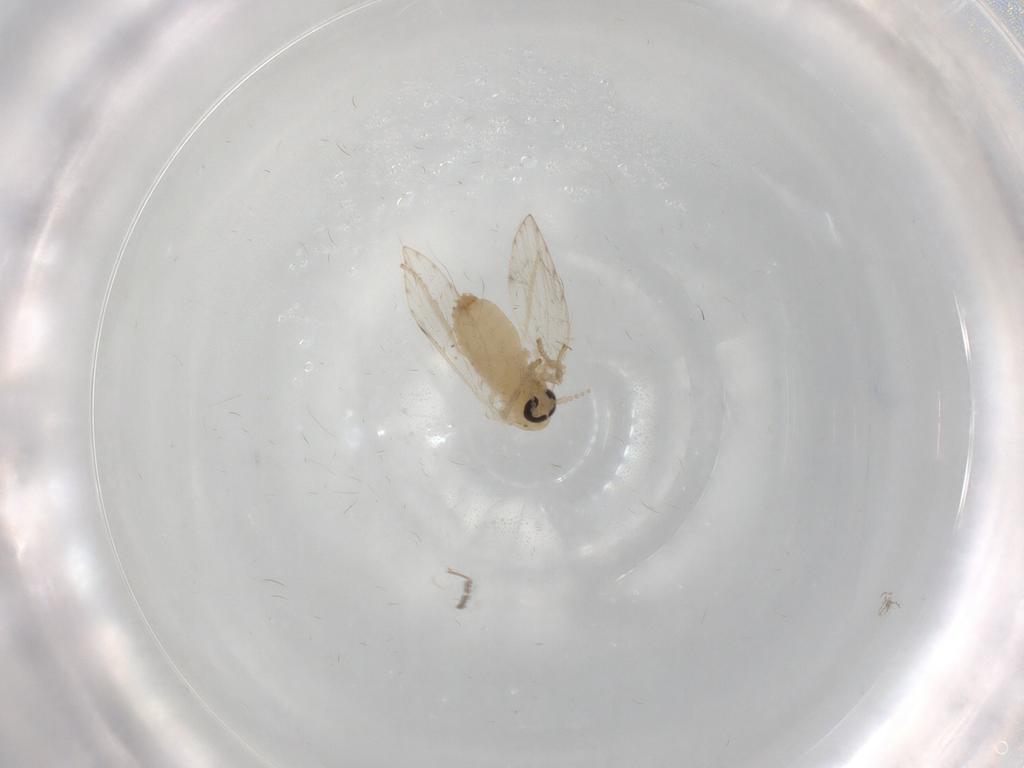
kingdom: Animalia
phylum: Arthropoda
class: Insecta
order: Diptera
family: Psychodidae
